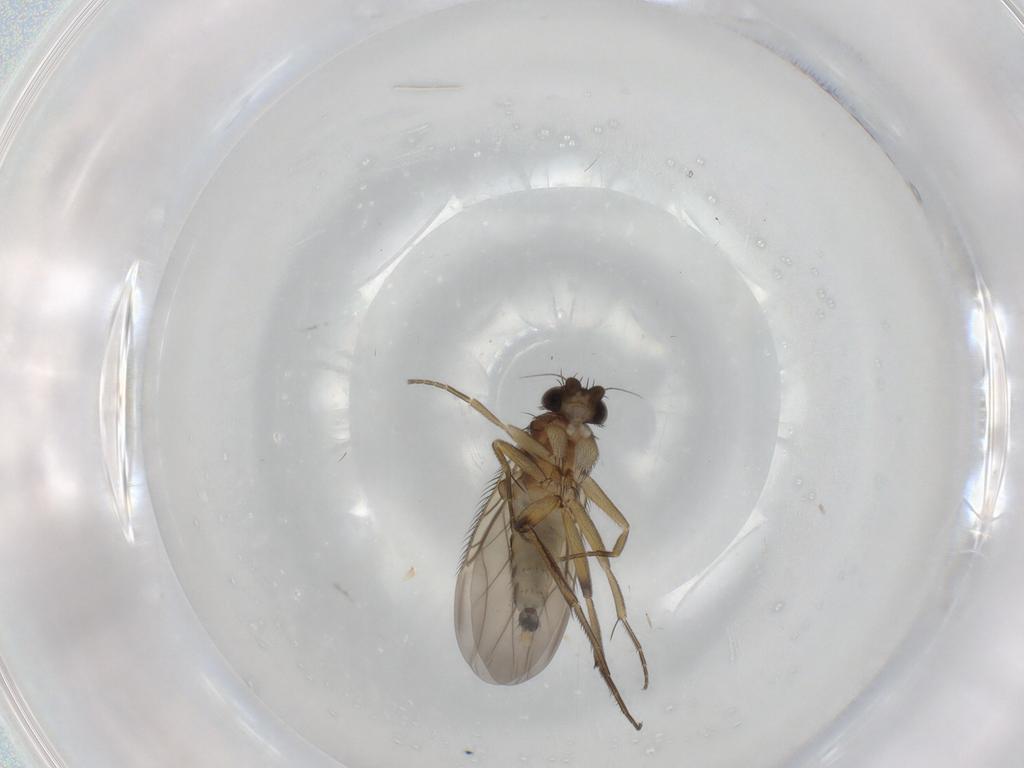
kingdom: Animalia
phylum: Arthropoda
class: Insecta
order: Diptera
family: Phoridae
